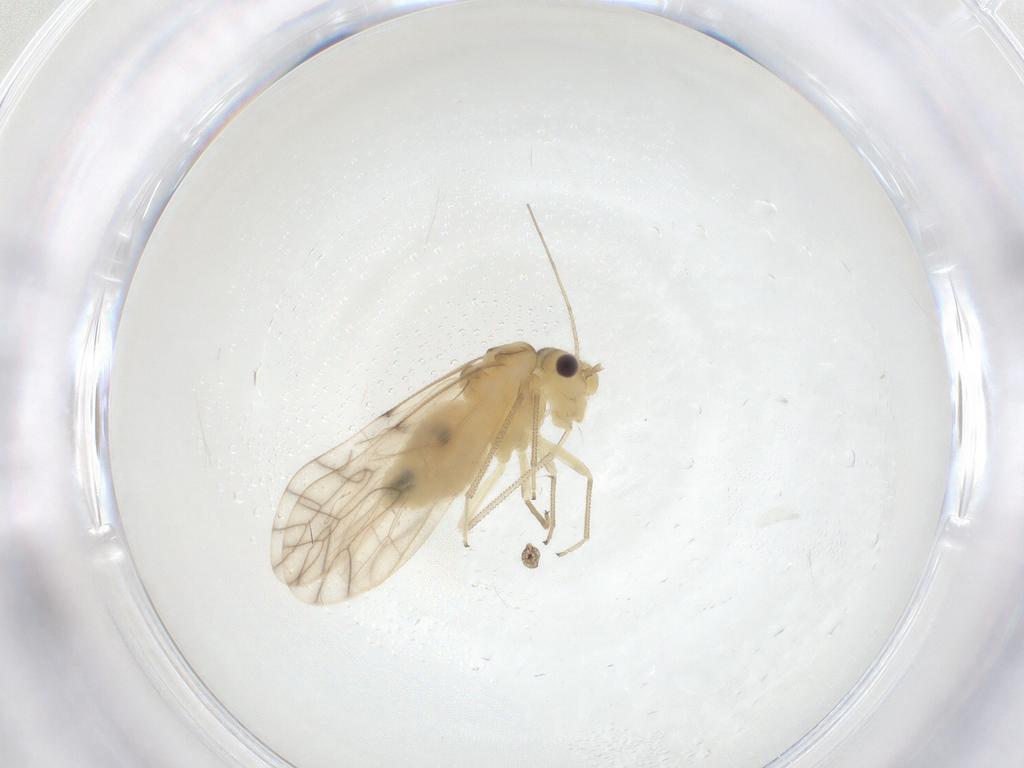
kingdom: Animalia
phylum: Arthropoda
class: Insecta
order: Psocodea
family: Caeciliusidae
